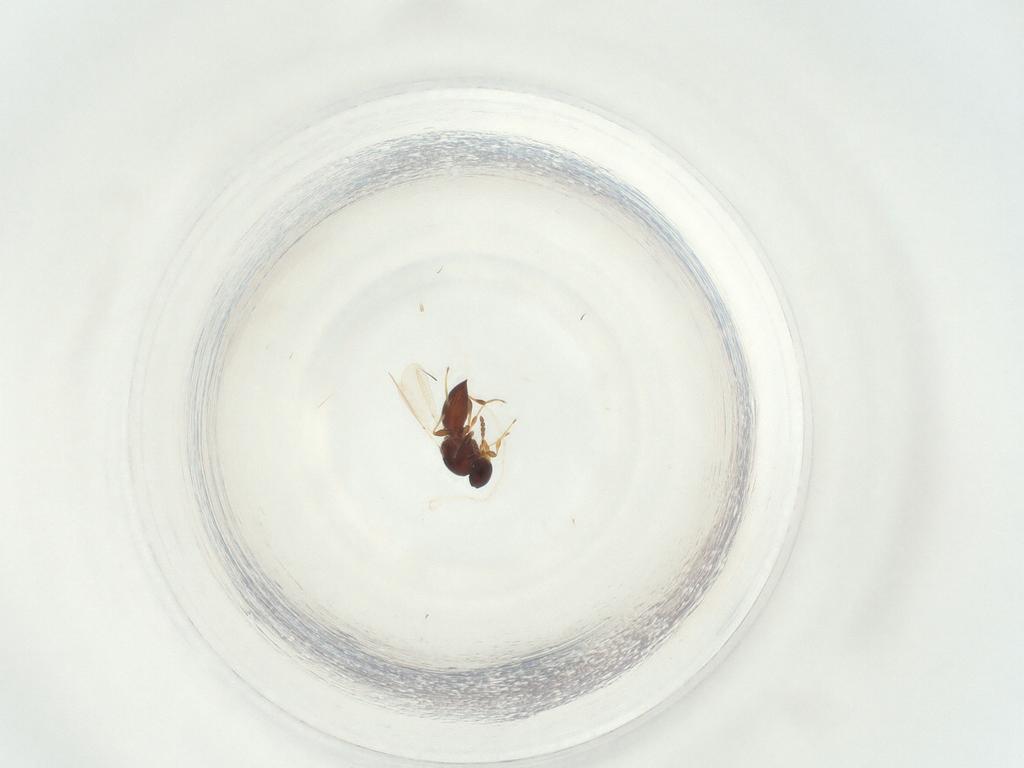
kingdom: Animalia
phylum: Arthropoda
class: Insecta
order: Hymenoptera
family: Platygastridae
